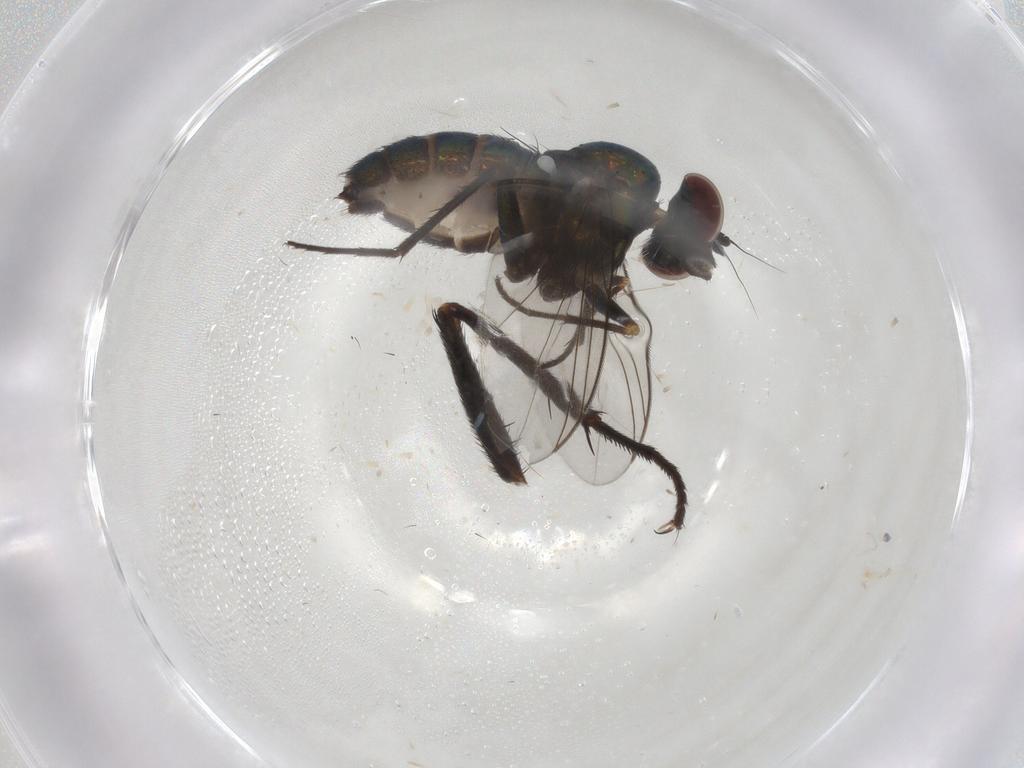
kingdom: Animalia
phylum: Arthropoda
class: Insecta
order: Diptera
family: Dolichopodidae
